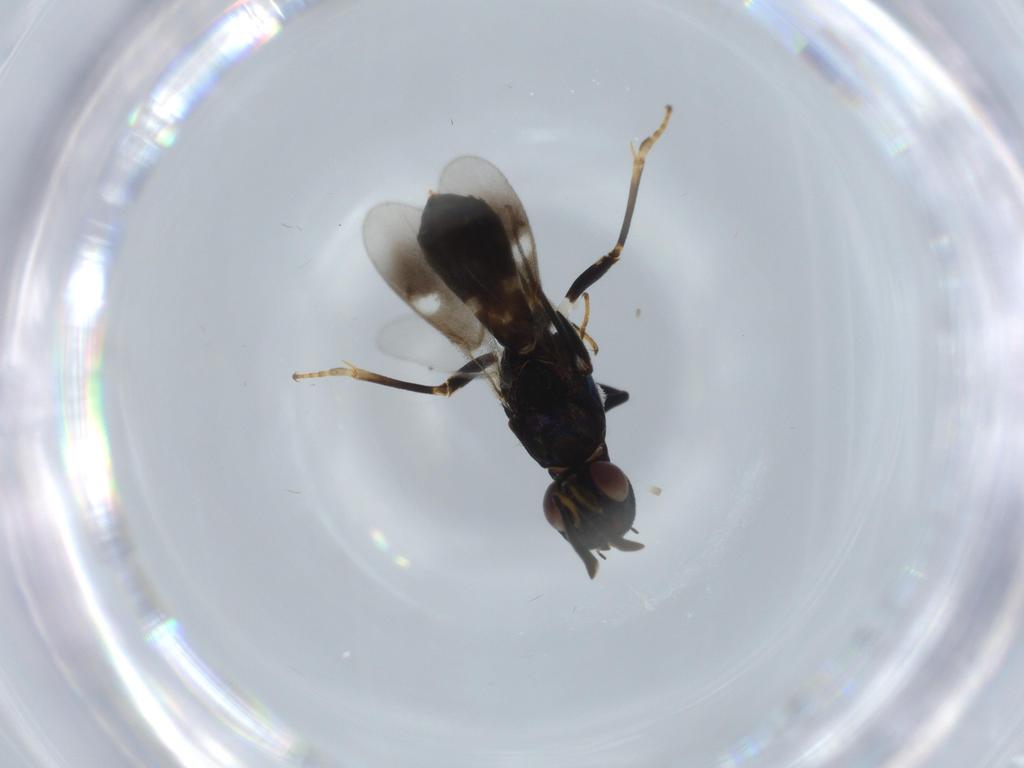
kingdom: Animalia
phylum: Arthropoda
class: Insecta
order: Hymenoptera
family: Eupelmidae
